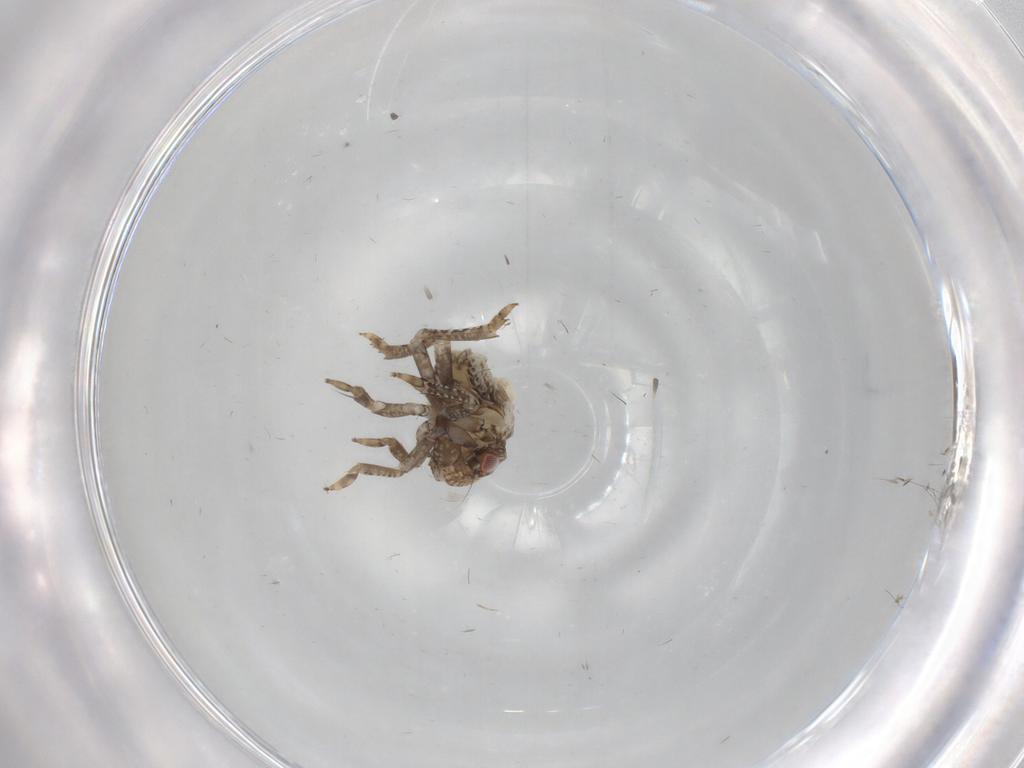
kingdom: Animalia
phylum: Arthropoda
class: Insecta
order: Hemiptera
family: Acanaloniidae
